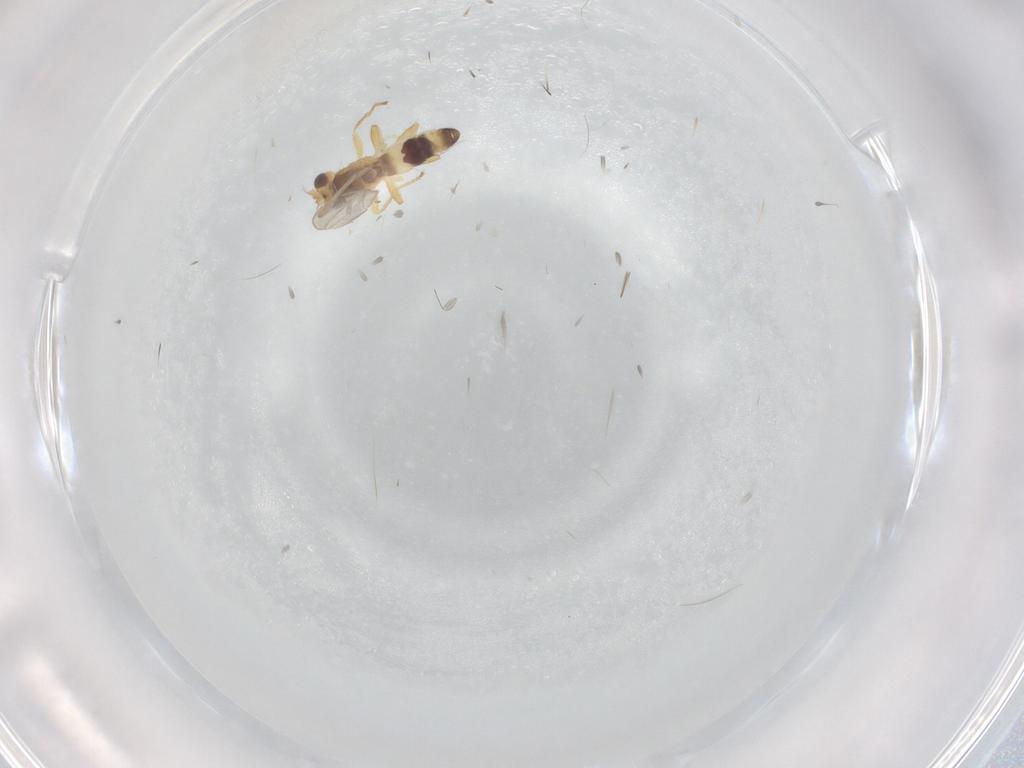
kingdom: Animalia
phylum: Arthropoda
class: Insecta
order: Diptera
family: Periscelididae
